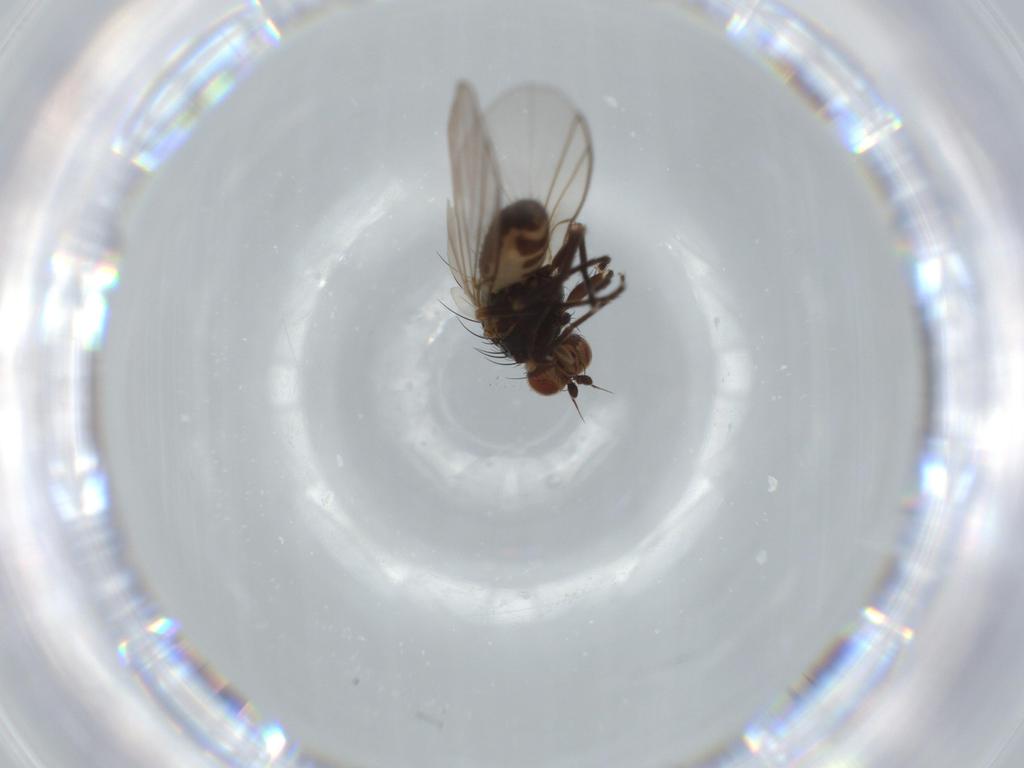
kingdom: Animalia
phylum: Arthropoda
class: Insecta
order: Diptera
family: Agromyzidae
